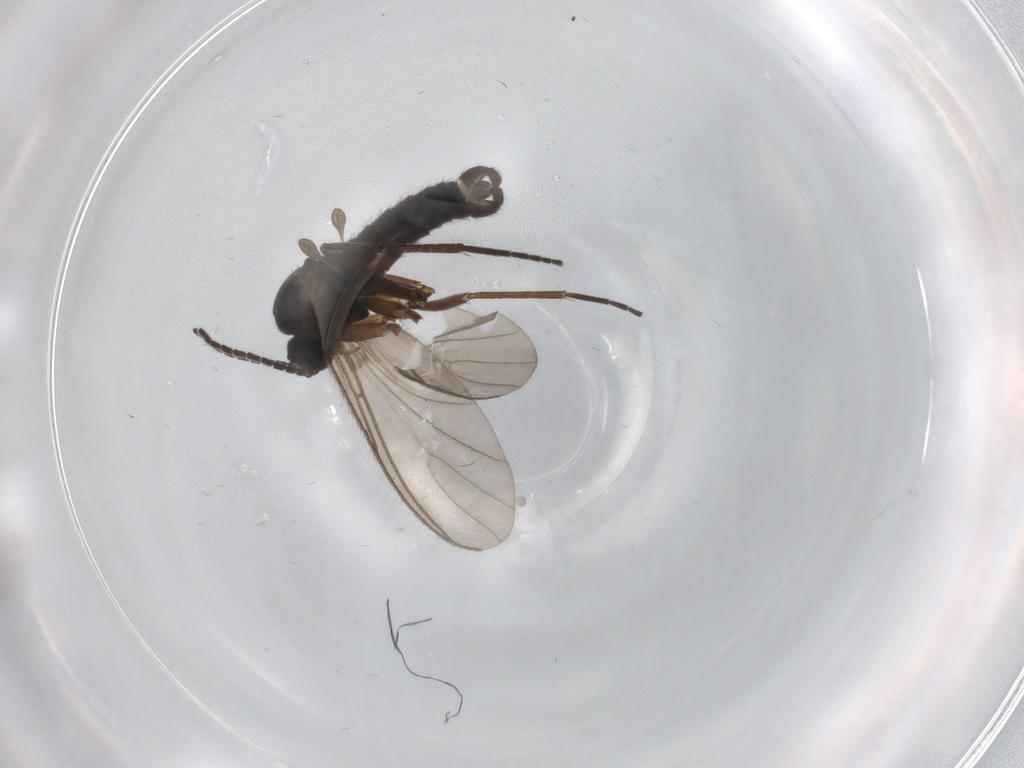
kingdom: Animalia
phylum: Arthropoda
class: Insecta
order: Diptera
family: Sciaridae
